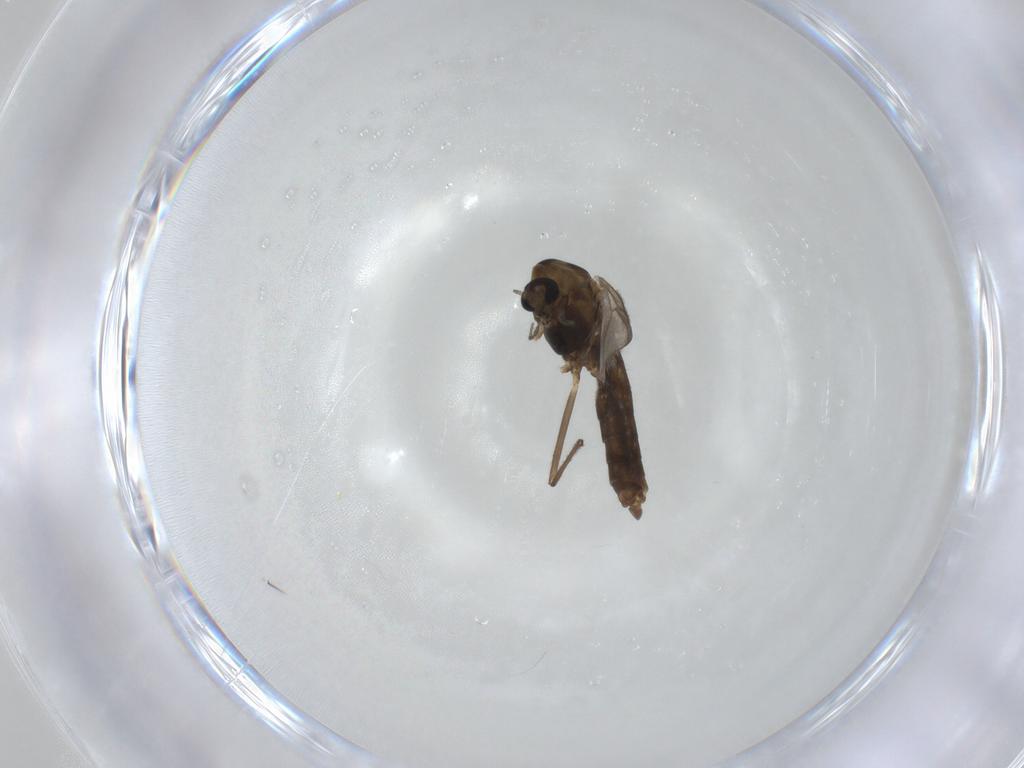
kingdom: Animalia
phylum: Arthropoda
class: Insecta
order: Diptera
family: Chironomidae
